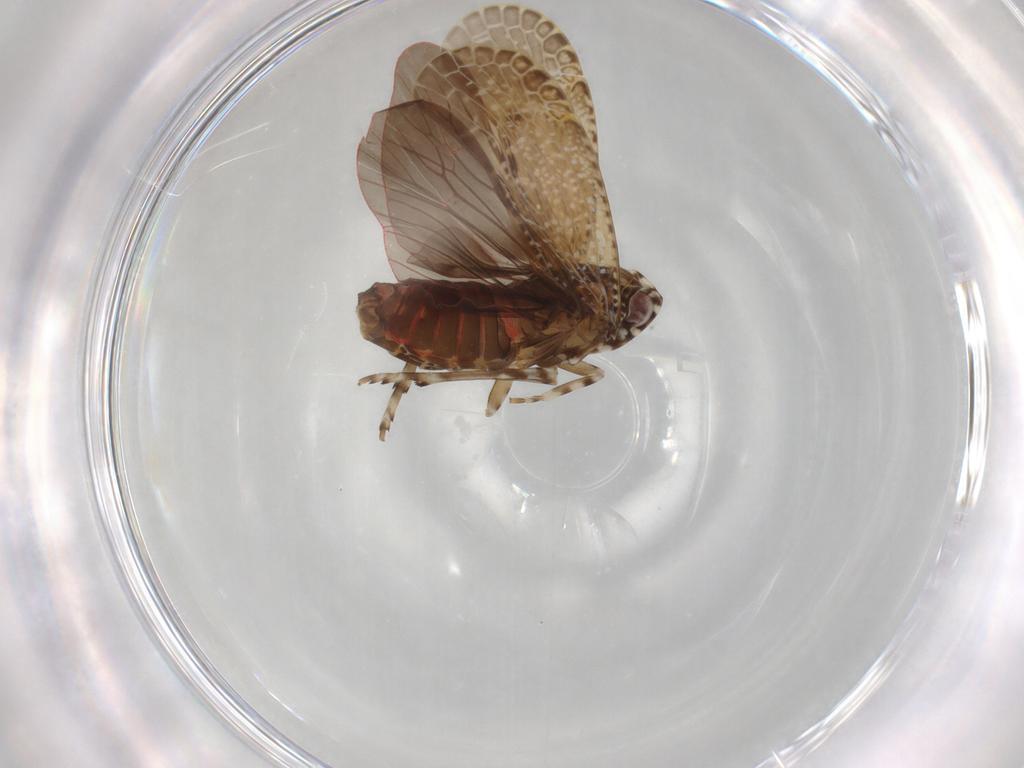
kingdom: Animalia
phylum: Arthropoda
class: Insecta
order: Hemiptera
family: Achilidae
